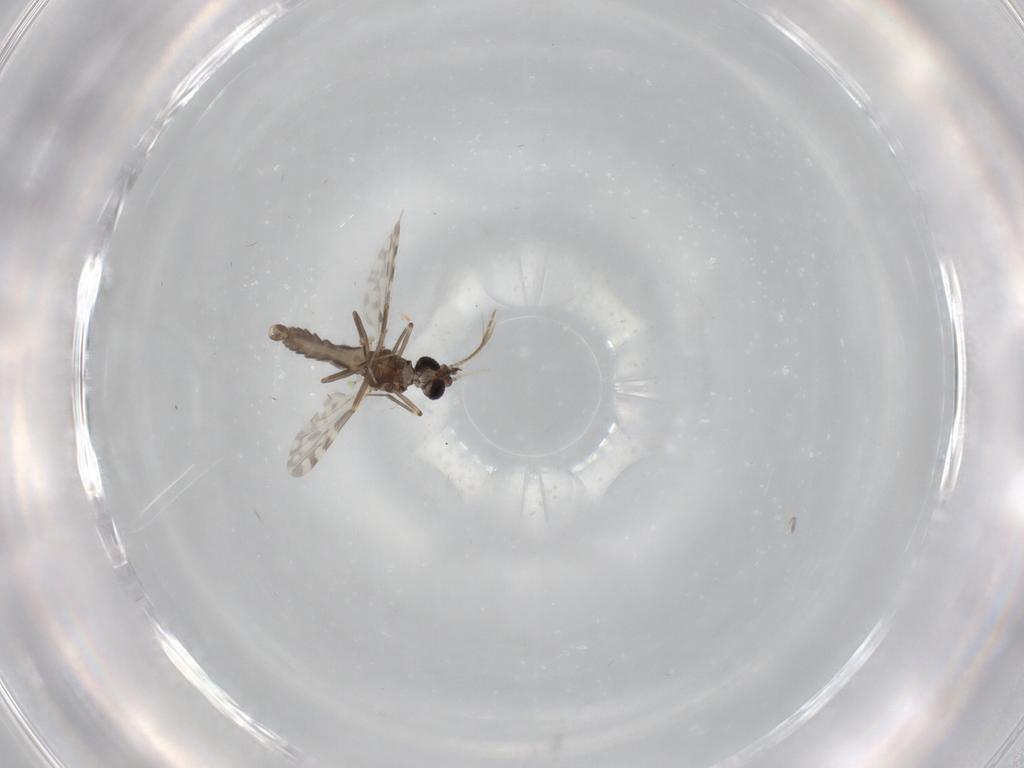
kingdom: Animalia
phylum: Arthropoda
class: Insecta
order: Diptera
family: Ceratopogonidae
